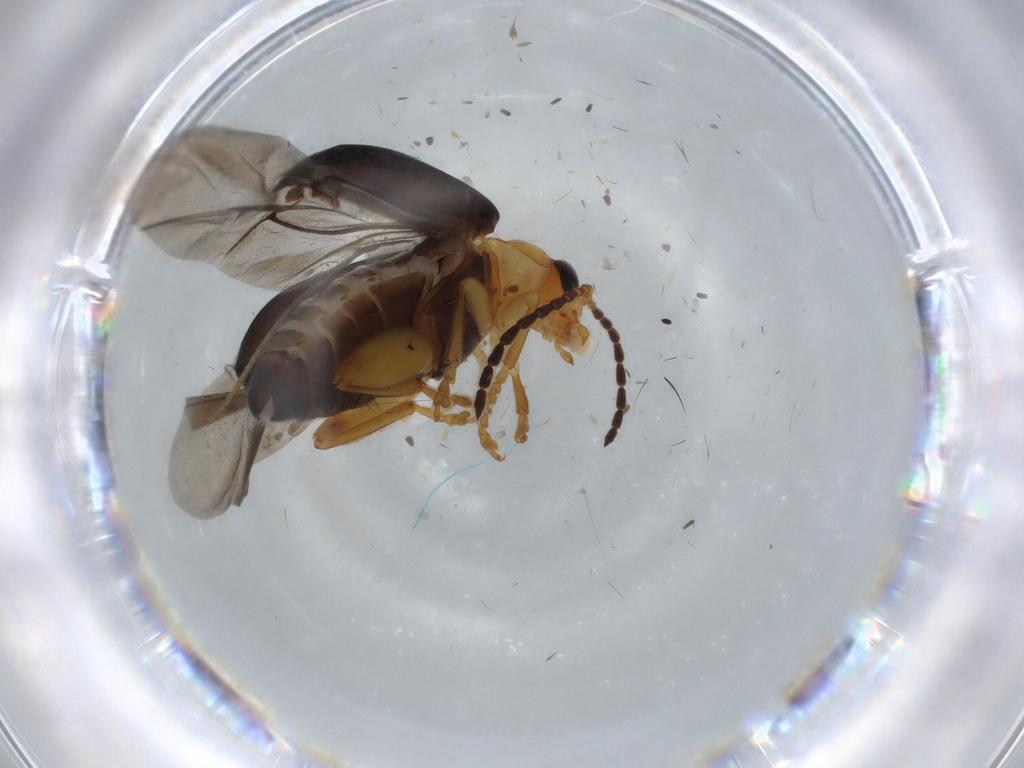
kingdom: Animalia
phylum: Arthropoda
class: Insecta
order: Coleoptera
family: Chrysomelidae
